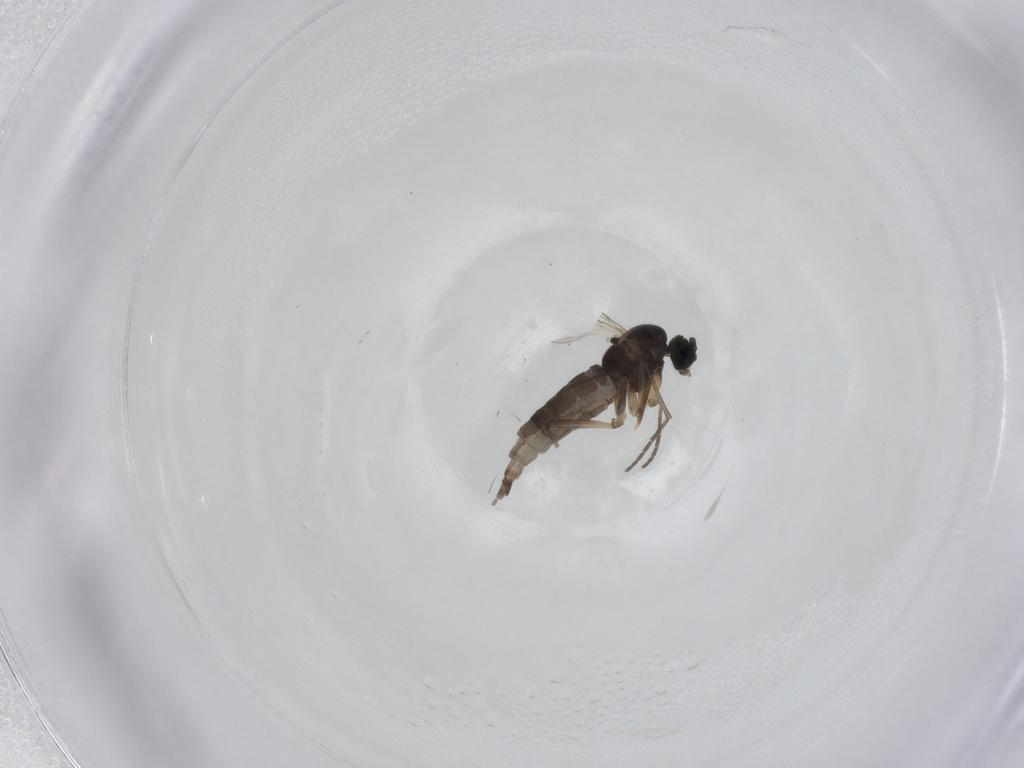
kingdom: Animalia
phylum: Arthropoda
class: Insecta
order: Diptera
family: Sciaridae
